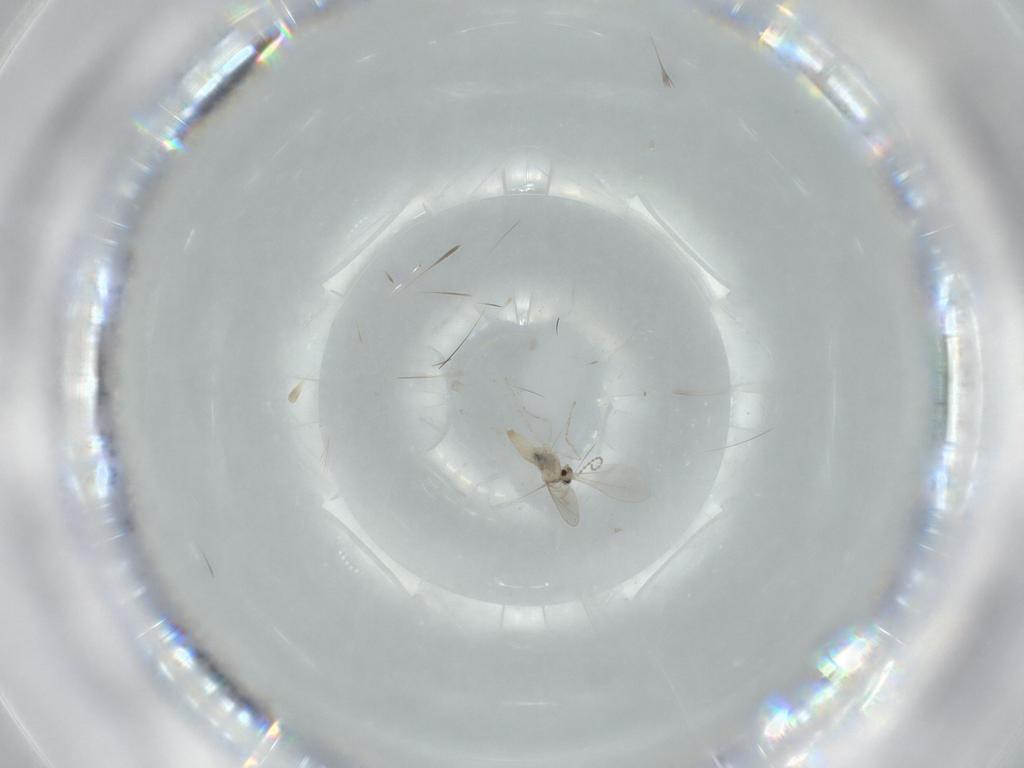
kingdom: Animalia
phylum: Arthropoda
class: Insecta
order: Diptera
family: Cecidomyiidae
